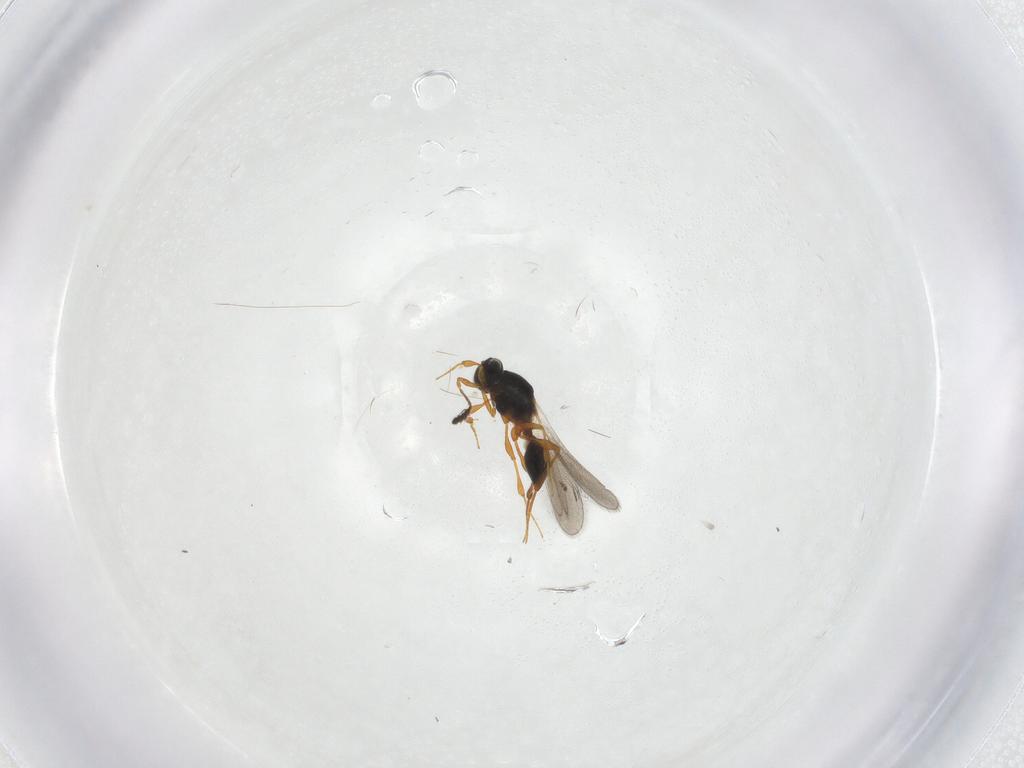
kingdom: Animalia
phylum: Arthropoda
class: Insecta
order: Hymenoptera
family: Platygastridae
